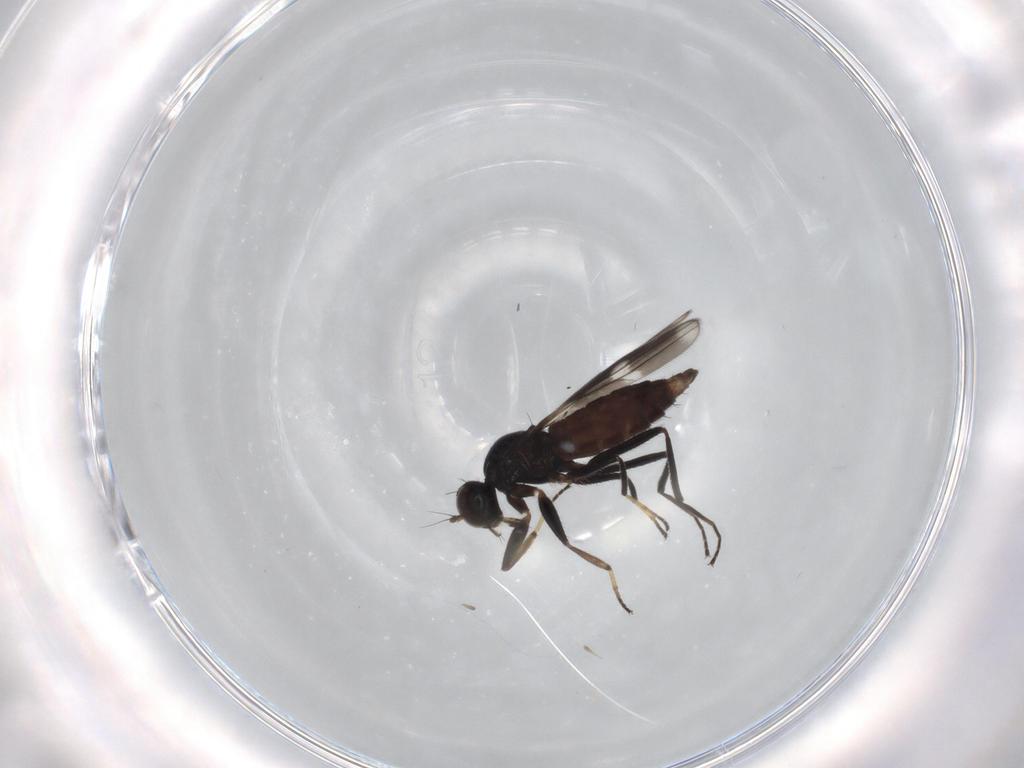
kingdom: Animalia
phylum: Arthropoda
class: Insecta
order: Diptera
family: Hybotidae
